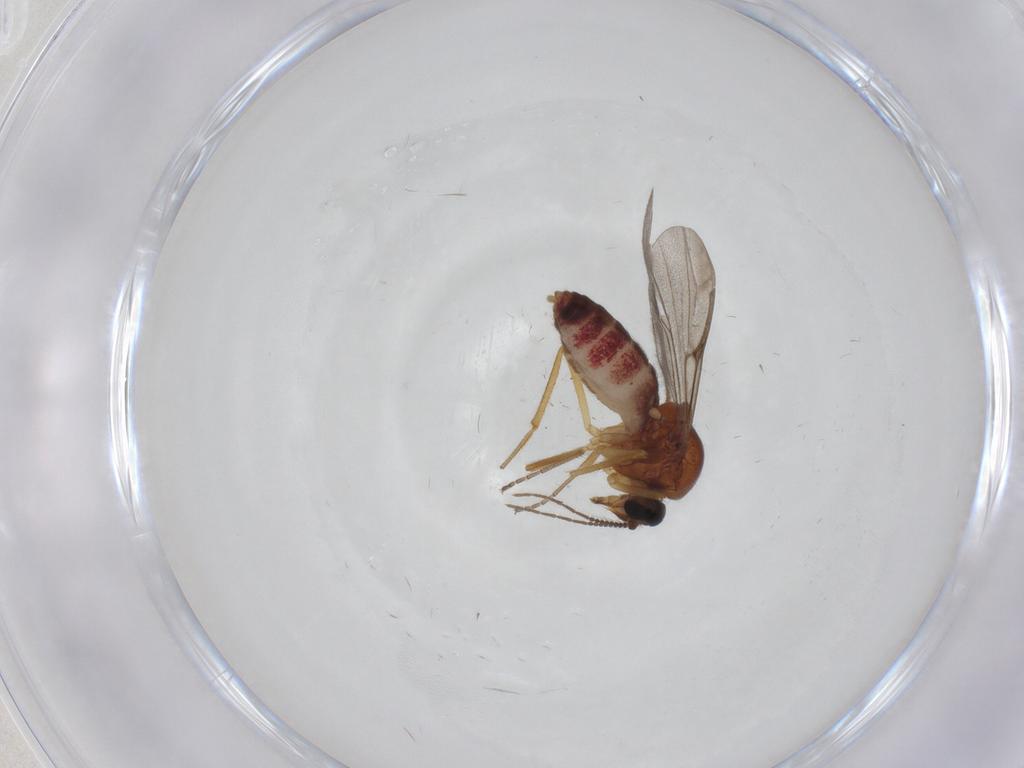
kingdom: Animalia
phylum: Arthropoda
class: Insecta
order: Diptera
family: Ceratopogonidae
